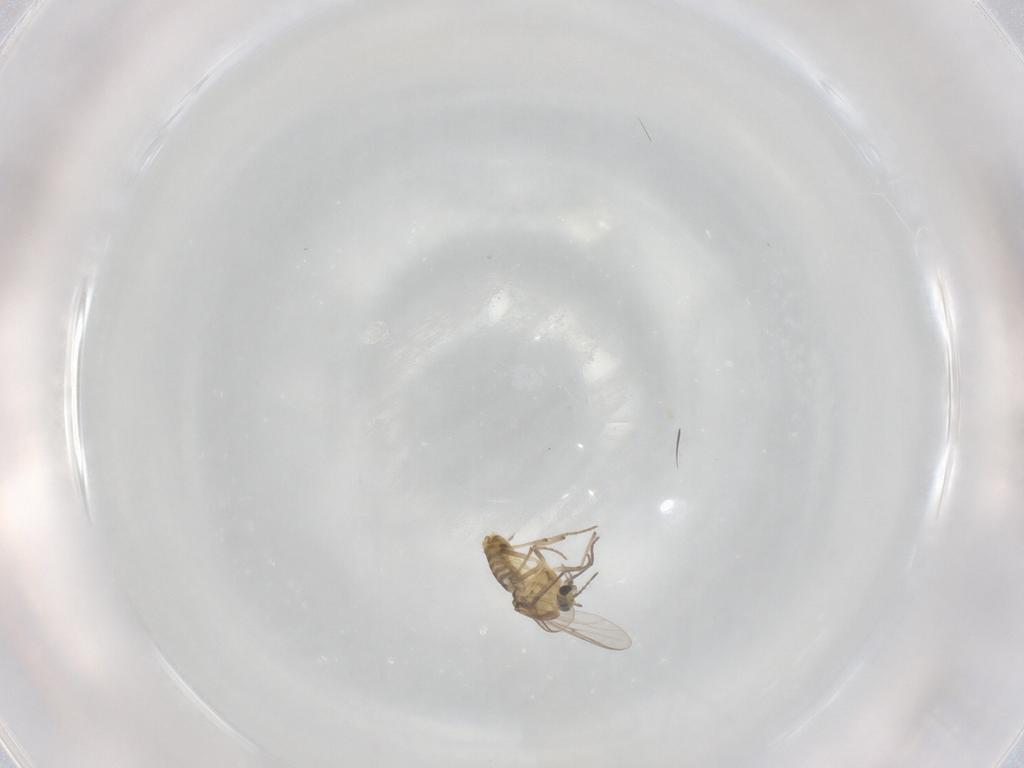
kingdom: Animalia
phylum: Arthropoda
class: Insecta
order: Diptera
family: Chironomidae
